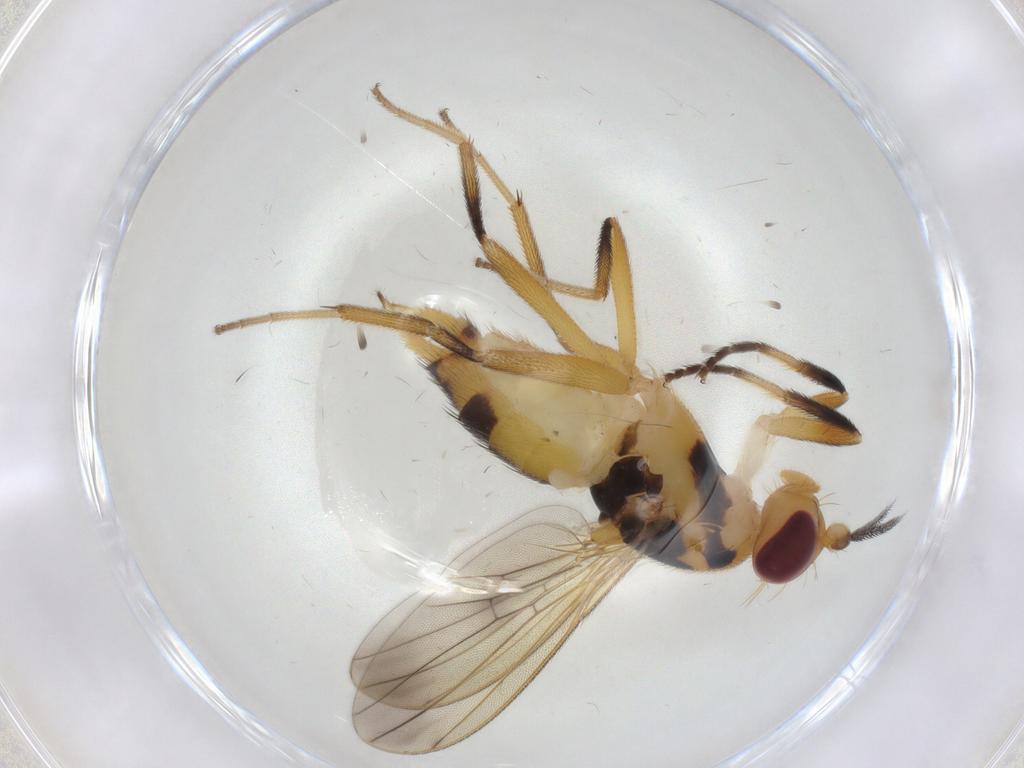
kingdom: Animalia
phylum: Arthropoda
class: Insecta
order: Diptera
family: Clusiidae
